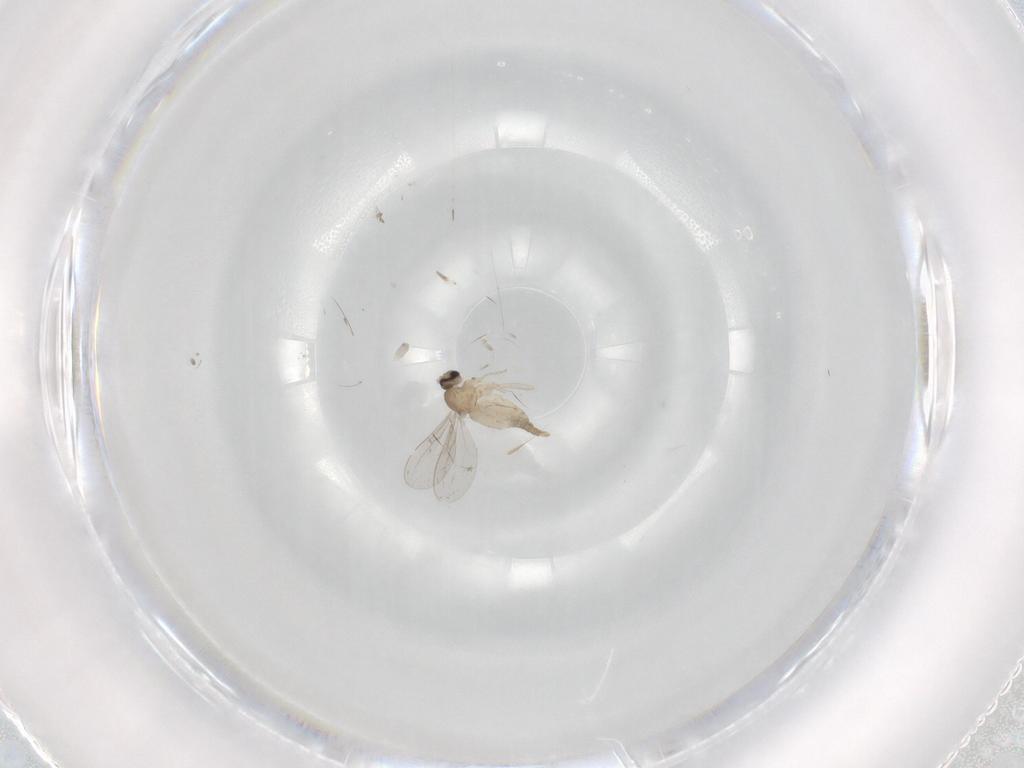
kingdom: Animalia
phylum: Arthropoda
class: Insecta
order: Diptera
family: Cecidomyiidae
